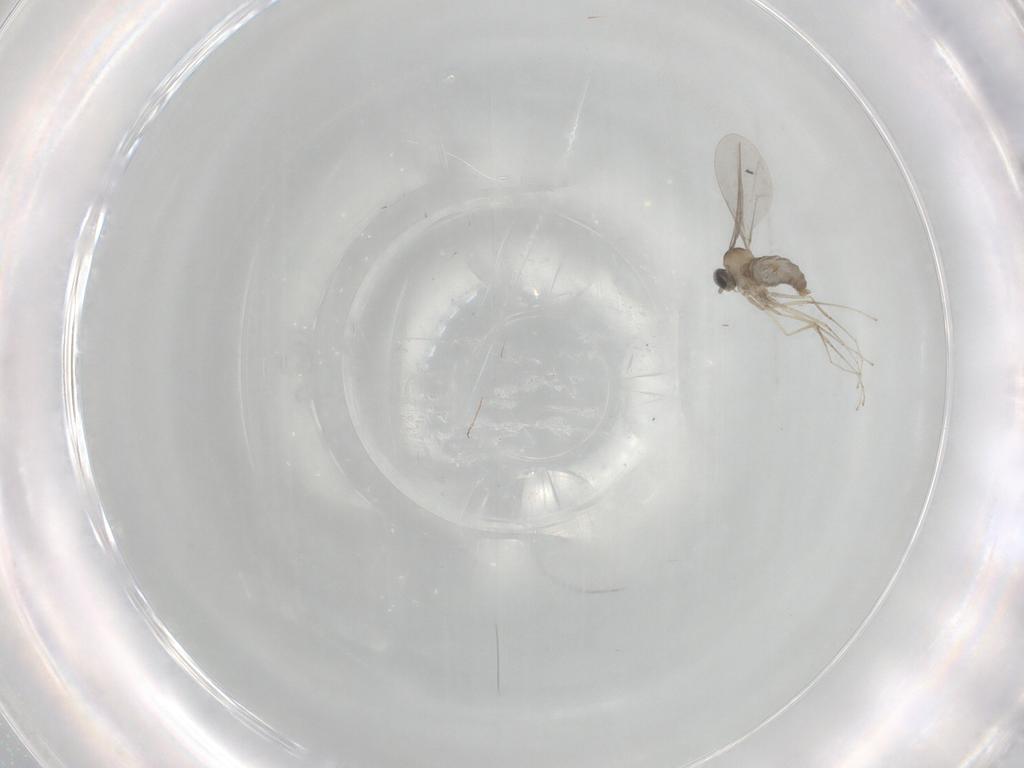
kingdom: Animalia
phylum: Arthropoda
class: Insecta
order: Diptera
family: Cecidomyiidae
